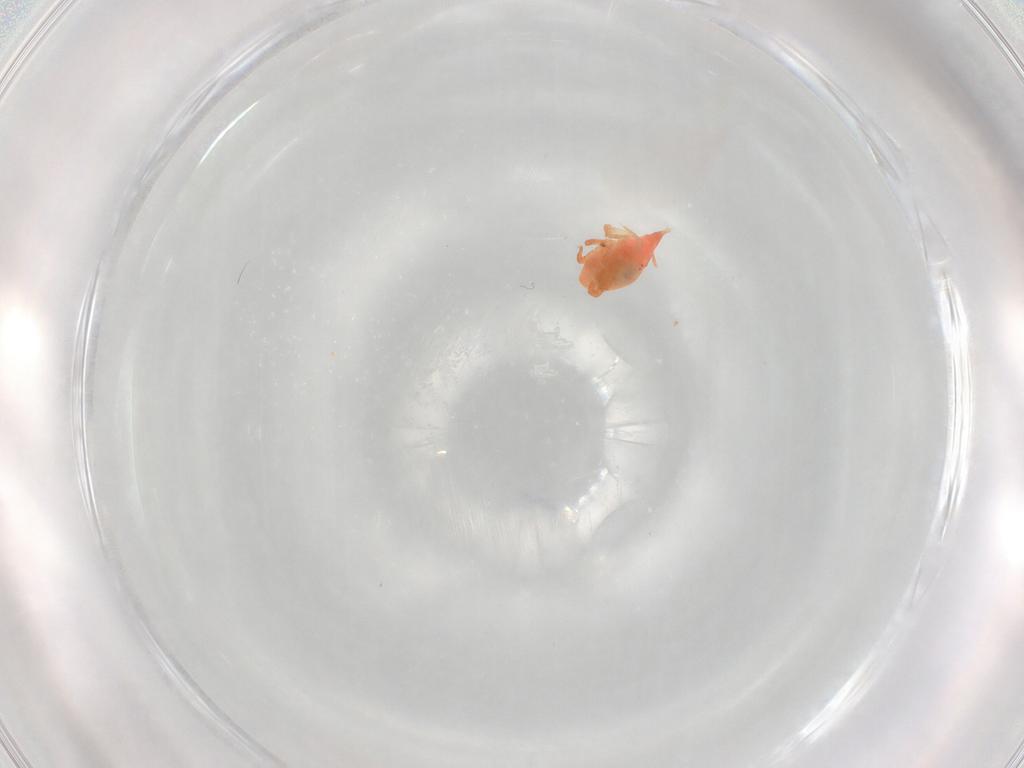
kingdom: Animalia
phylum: Arthropoda
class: Arachnida
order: Trombidiformes
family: Bdellidae
